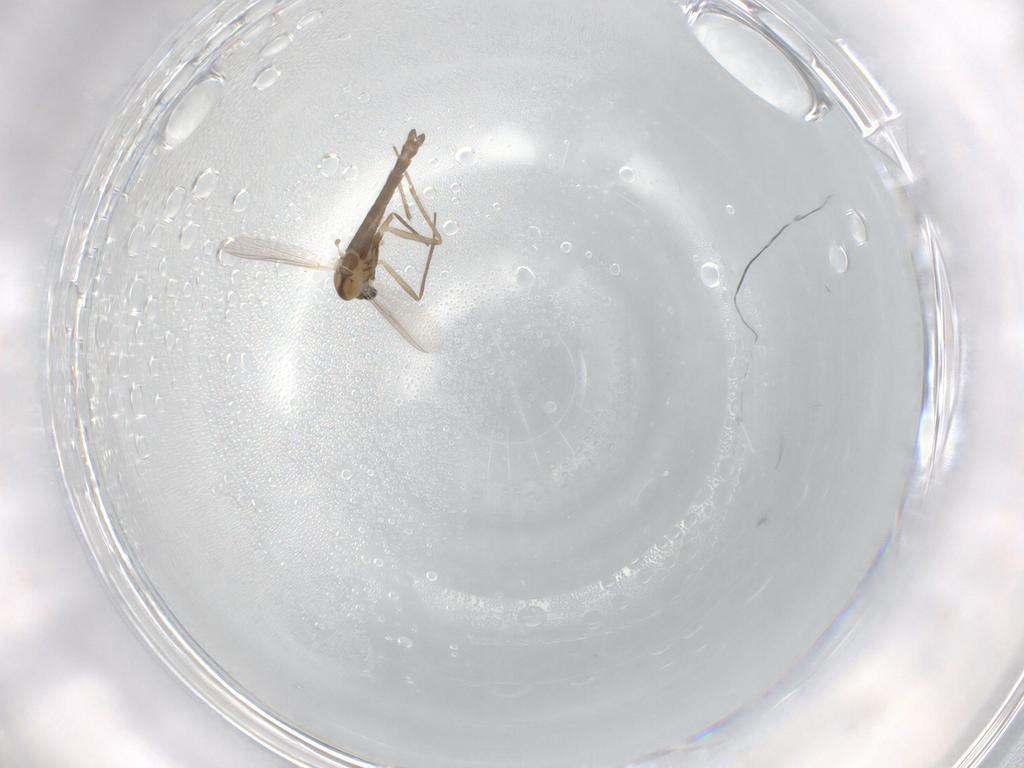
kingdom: Animalia
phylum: Arthropoda
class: Insecta
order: Diptera
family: Chironomidae
